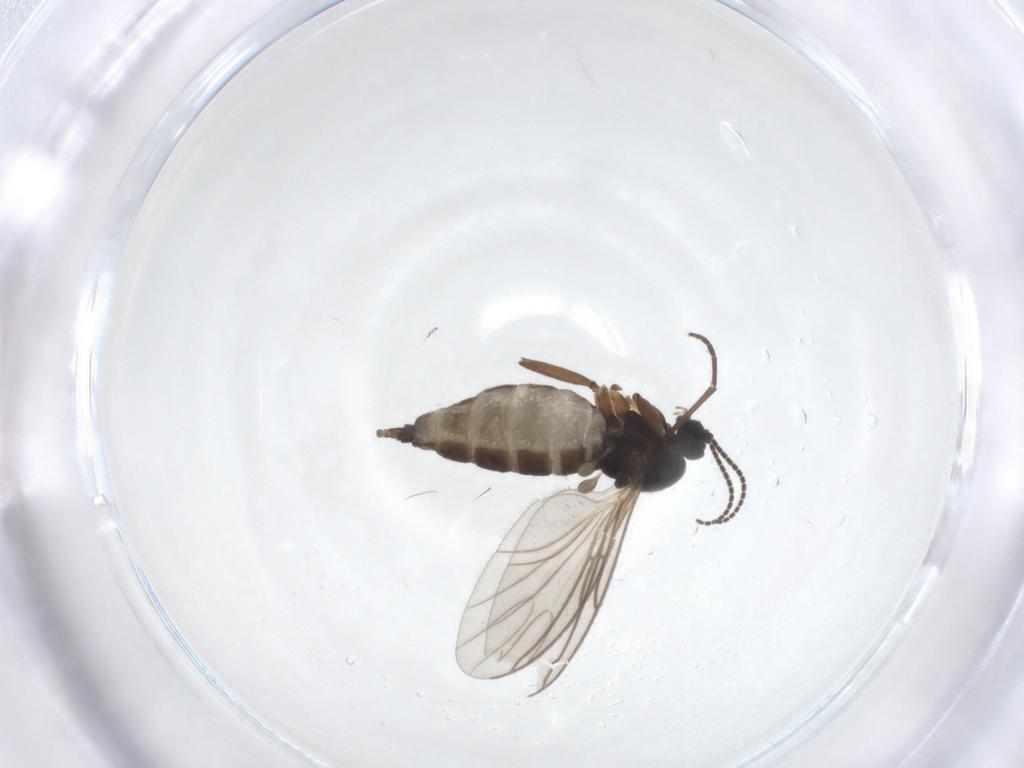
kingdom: Animalia
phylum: Arthropoda
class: Insecta
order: Diptera
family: Sciaridae
